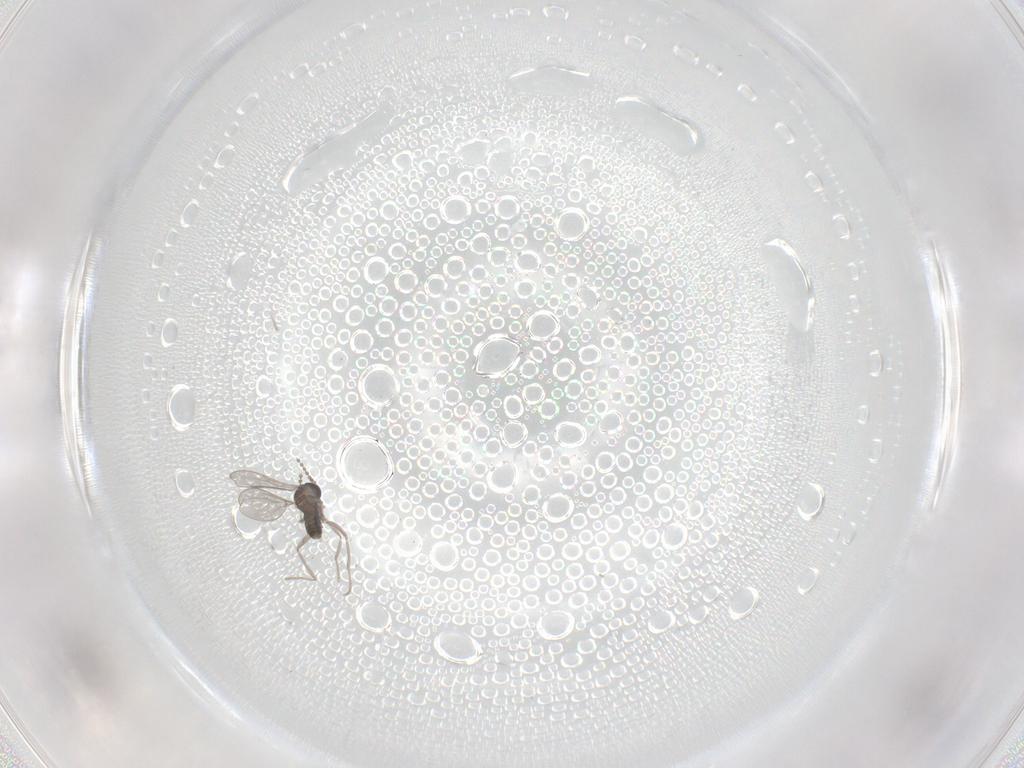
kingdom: Animalia
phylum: Arthropoda
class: Insecta
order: Diptera
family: Cecidomyiidae
